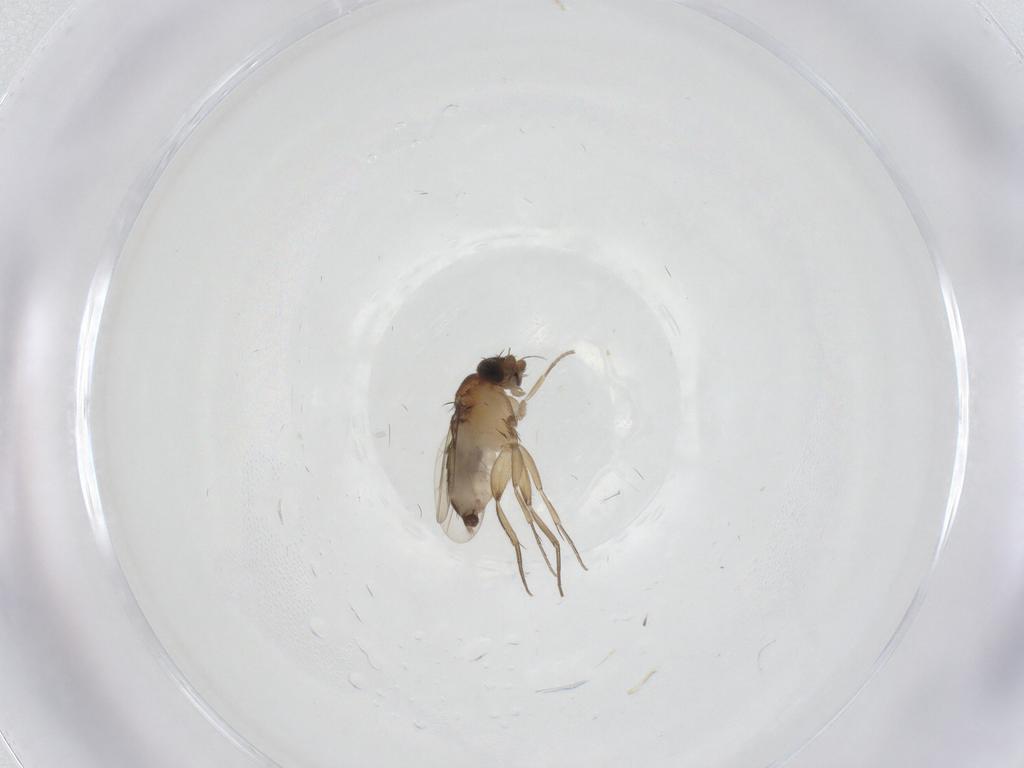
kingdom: Animalia
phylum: Arthropoda
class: Insecta
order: Diptera
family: Phoridae
